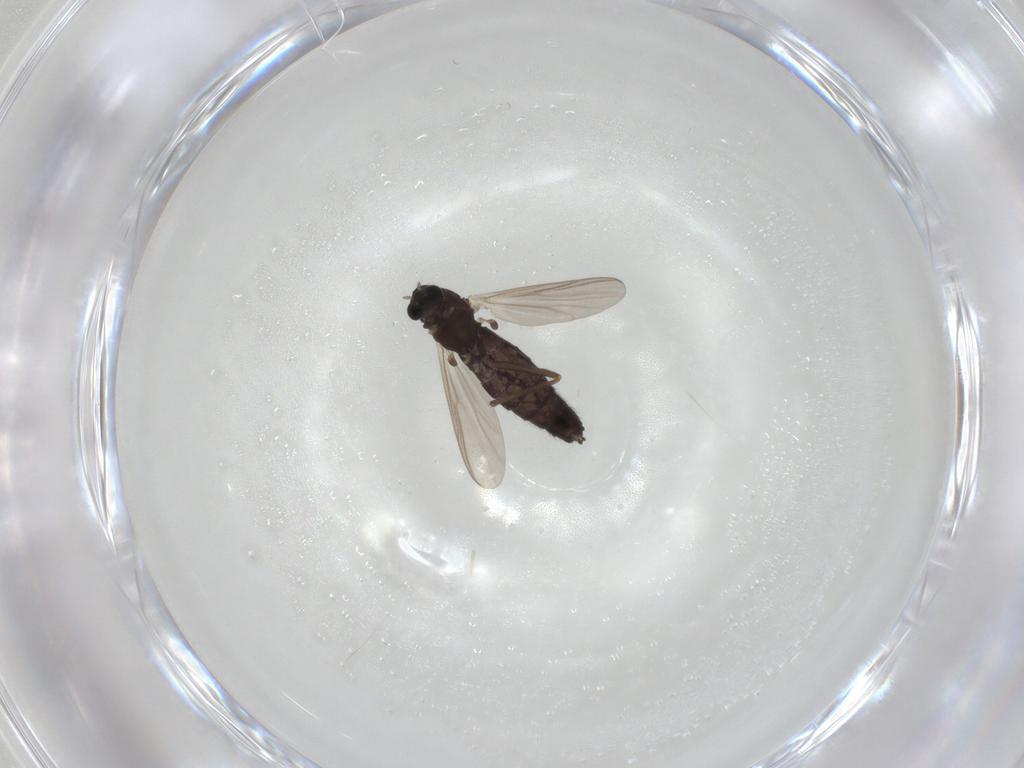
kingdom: Animalia
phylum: Arthropoda
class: Insecta
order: Diptera
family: Chironomidae
